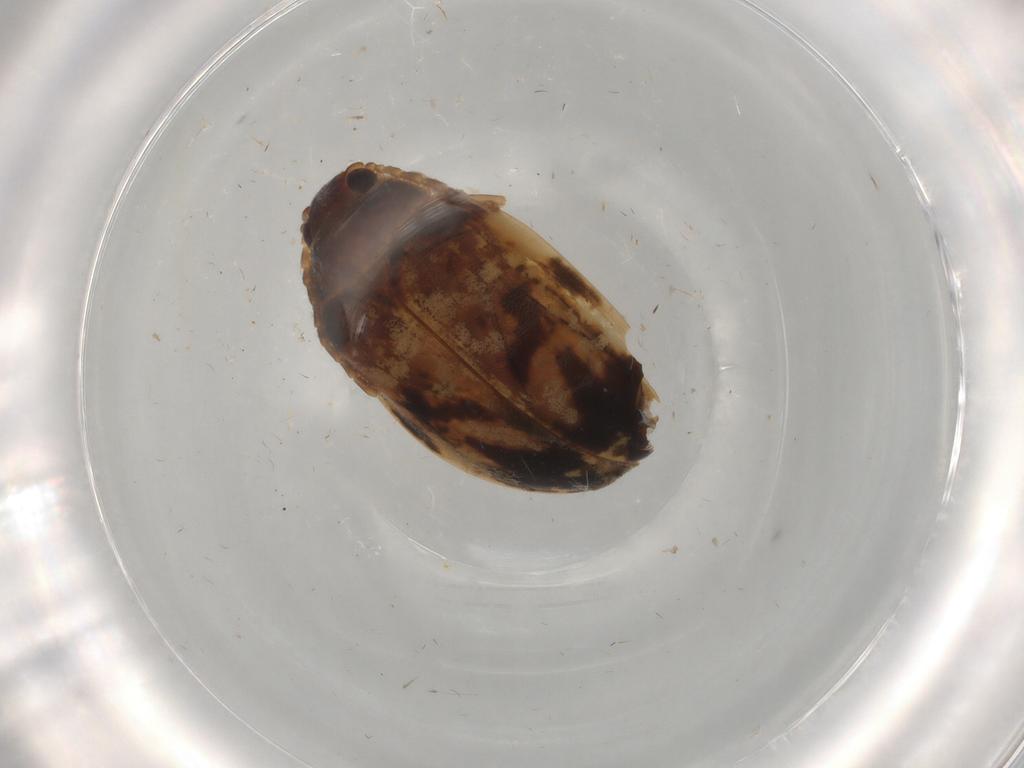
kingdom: Animalia
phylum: Arthropoda
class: Insecta
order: Coleoptera
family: Scirtidae
